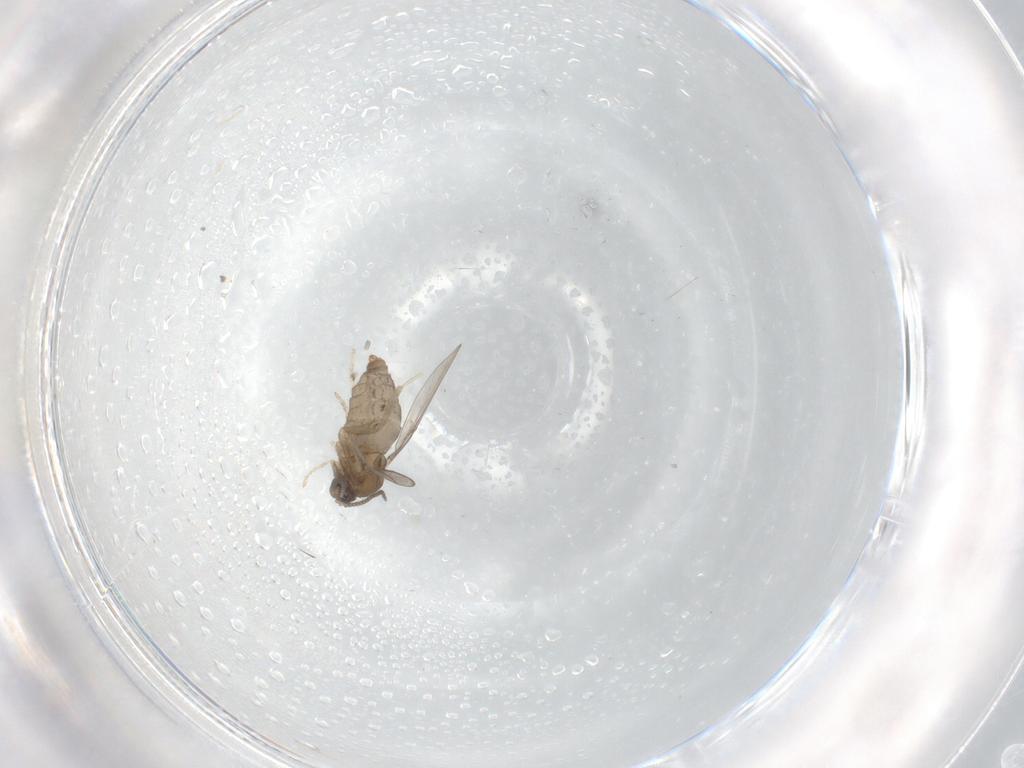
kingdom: Animalia
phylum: Arthropoda
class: Insecta
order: Diptera
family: Cecidomyiidae
